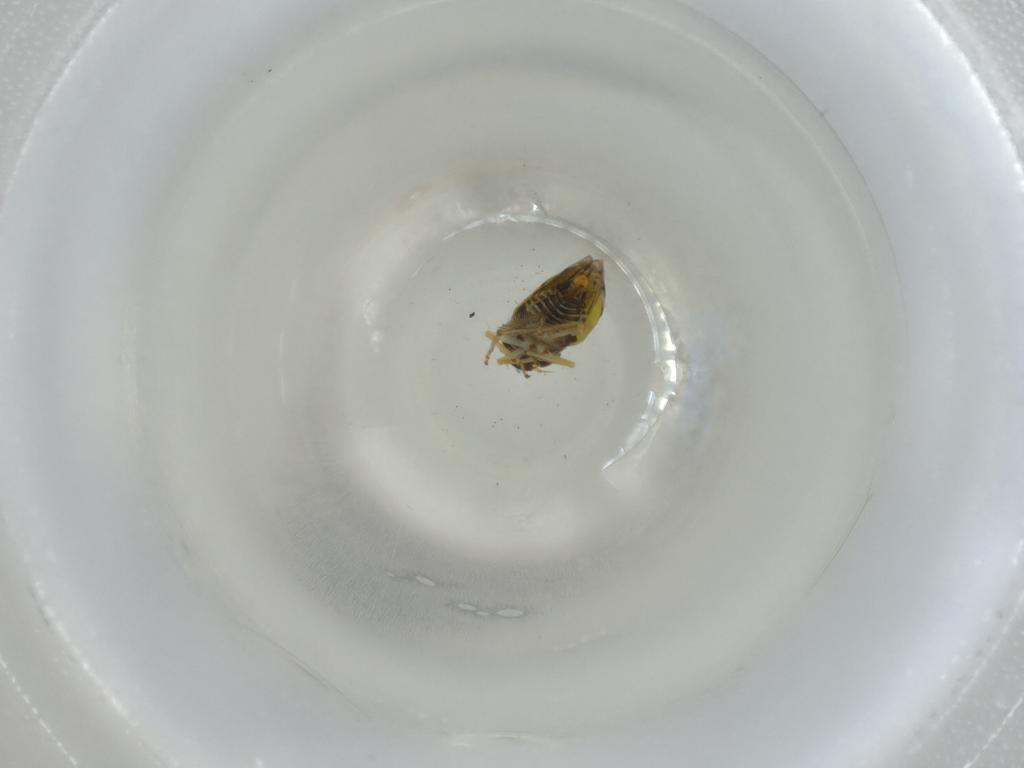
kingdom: Animalia
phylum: Arthropoda
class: Insecta
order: Hemiptera
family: Cicadellidae
